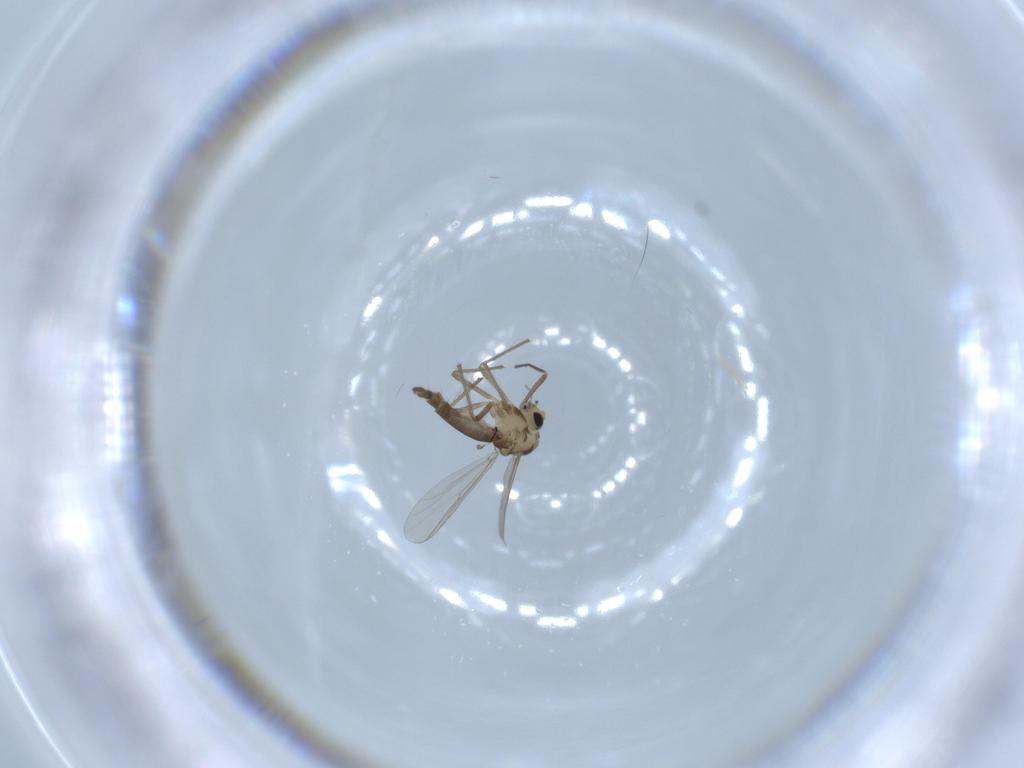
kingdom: Animalia
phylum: Arthropoda
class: Insecta
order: Diptera
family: Chironomidae
